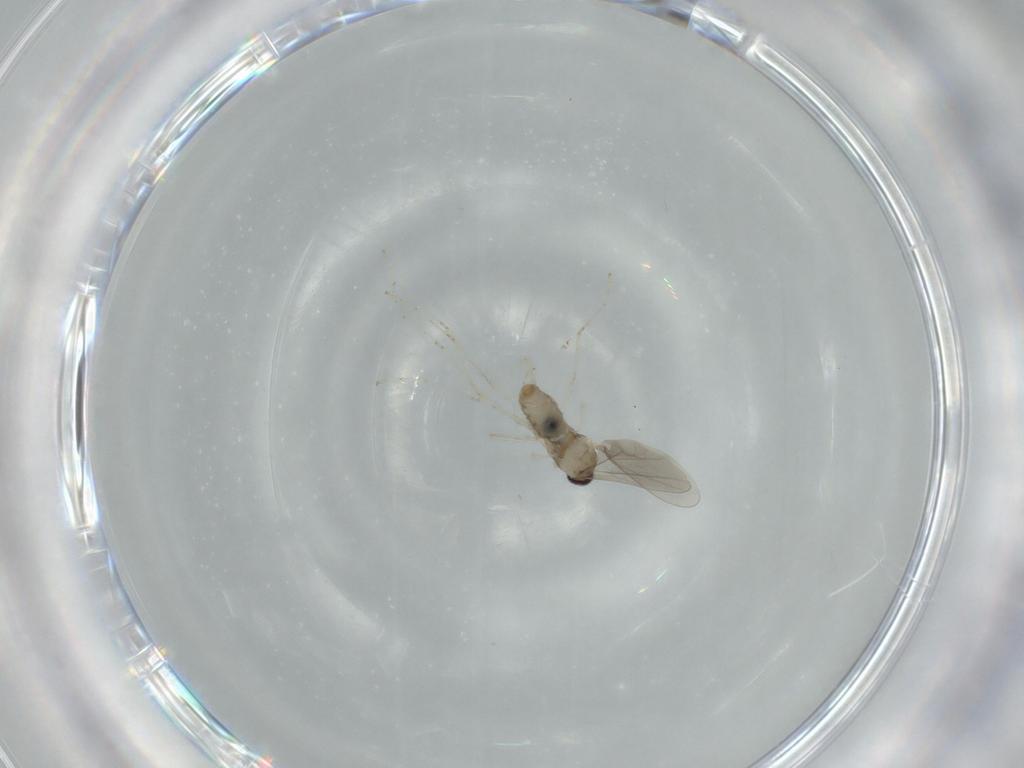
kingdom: Animalia
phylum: Arthropoda
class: Insecta
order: Diptera
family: Cecidomyiidae
